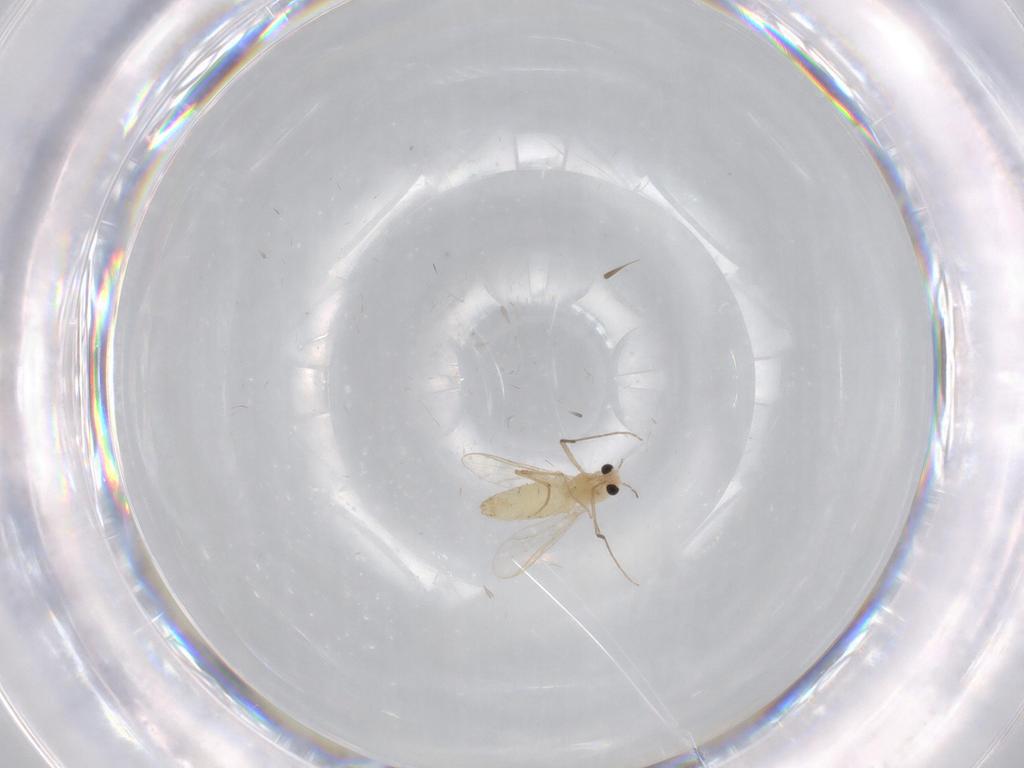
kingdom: Animalia
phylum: Arthropoda
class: Insecta
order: Diptera
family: Chironomidae
